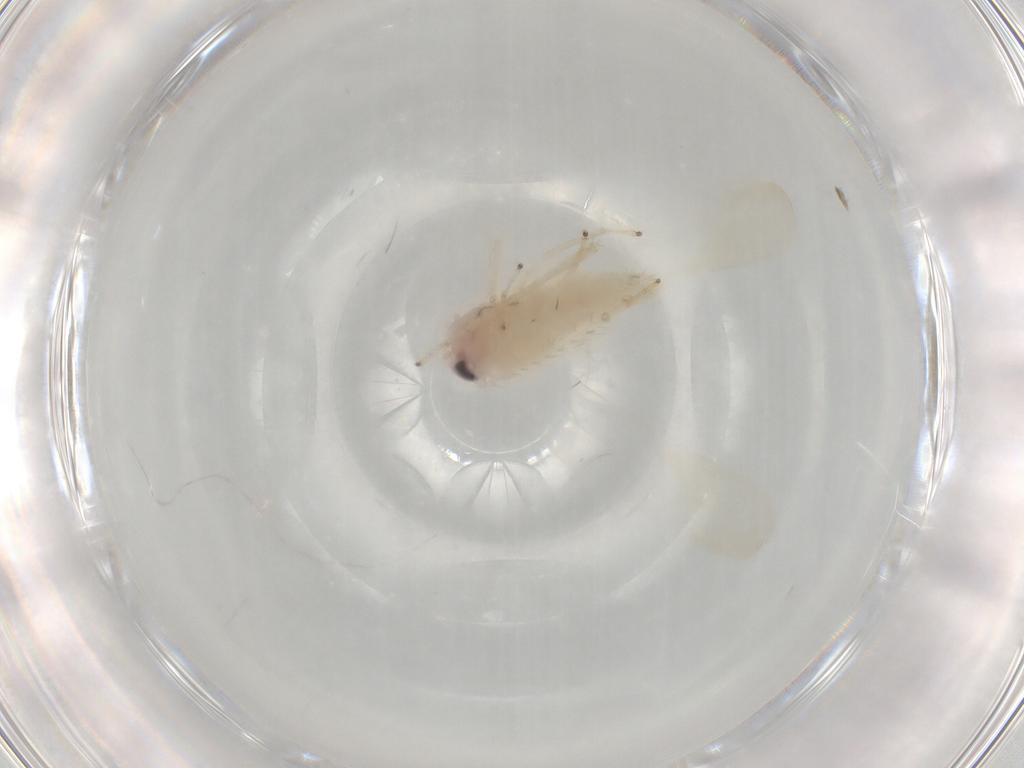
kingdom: Animalia
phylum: Arthropoda
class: Insecta
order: Hemiptera
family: Cicadellidae
